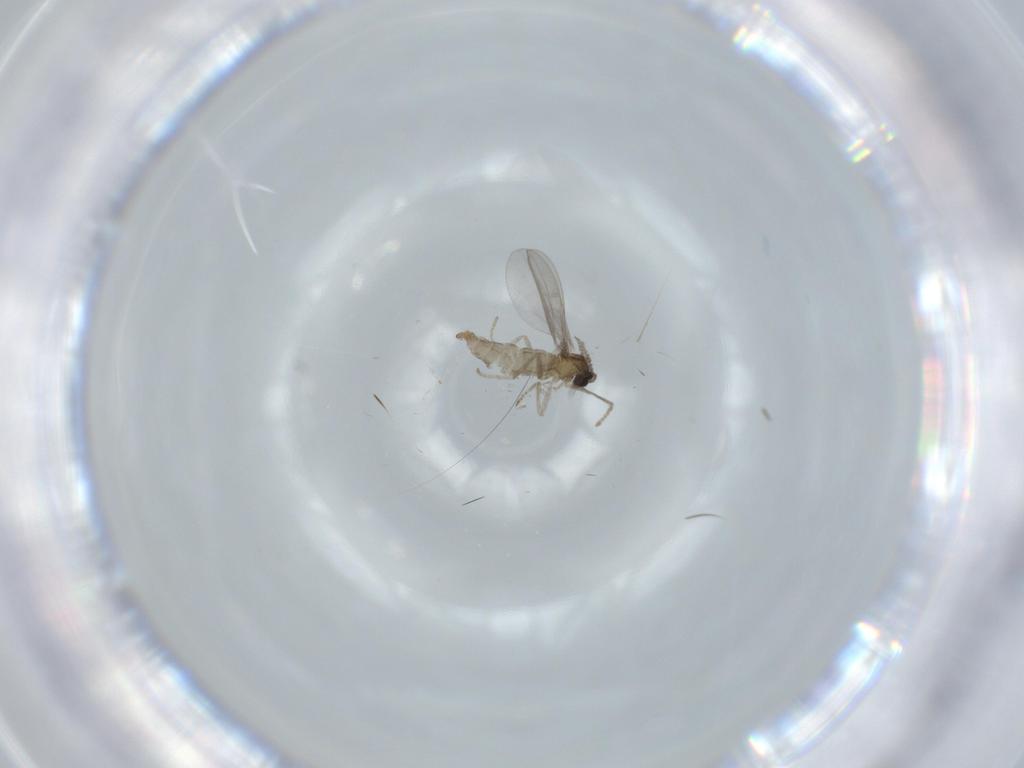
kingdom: Animalia
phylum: Arthropoda
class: Insecta
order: Diptera
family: Cecidomyiidae
